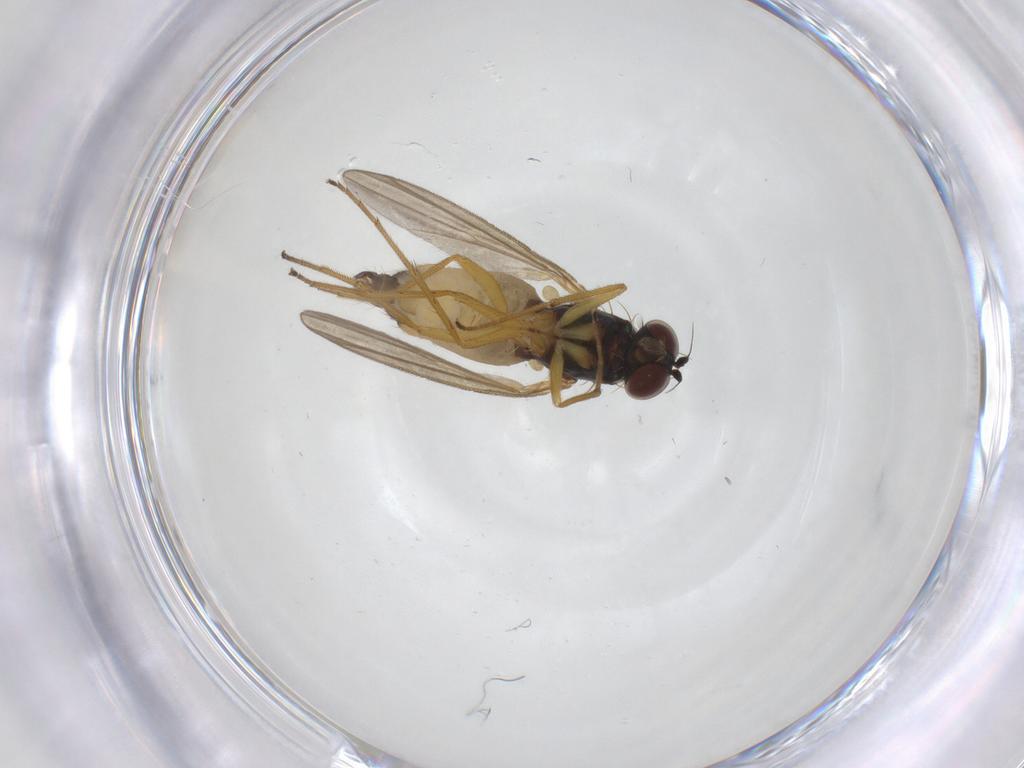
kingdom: Animalia
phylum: Arthropoda
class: Insecta
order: Diptera
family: Dolichopodidae
